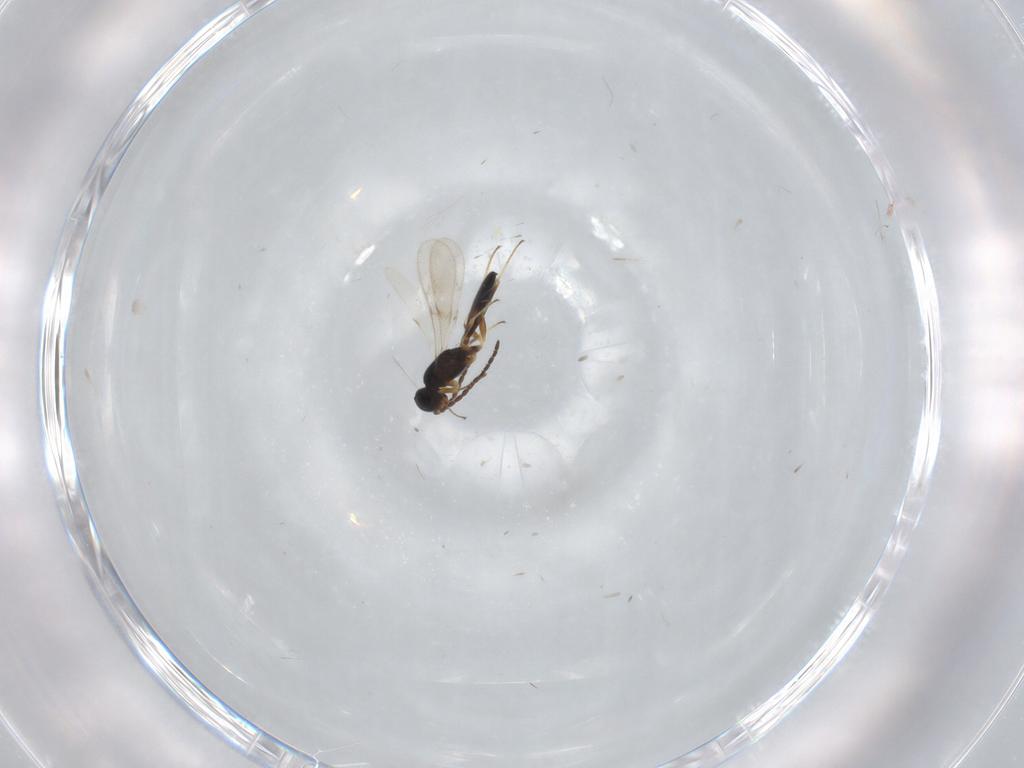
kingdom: Animalia
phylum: Arthropoda
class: Insecta
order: Hymenoptera
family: Scelionidae
